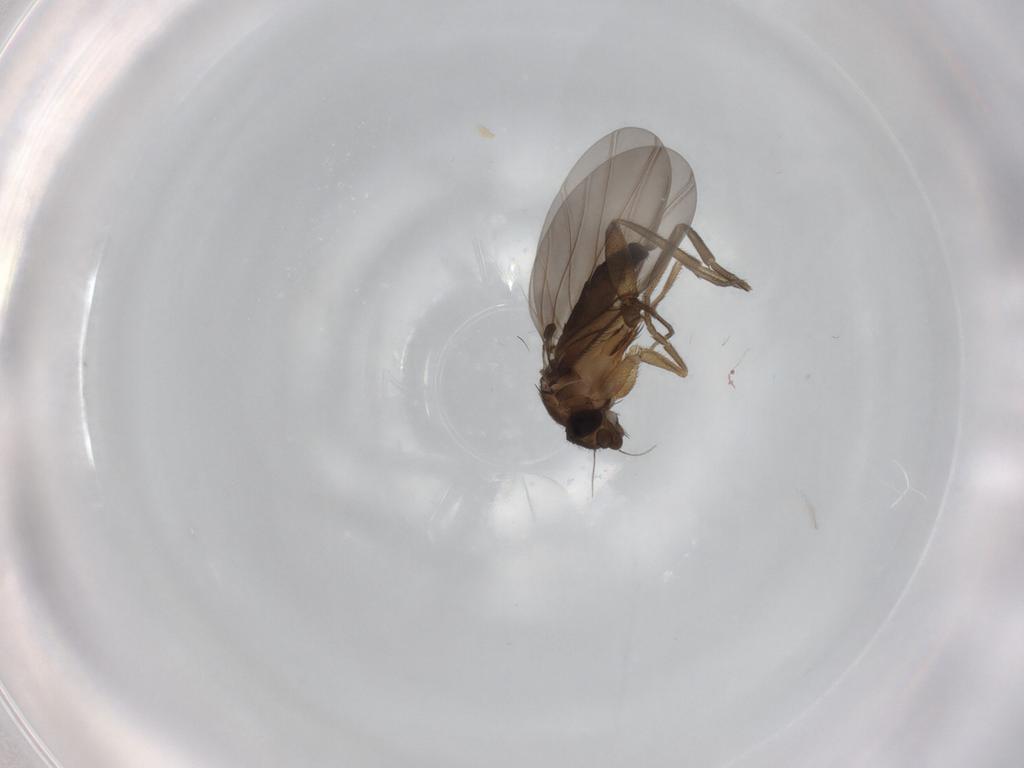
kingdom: Animalia
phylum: Arthropoda
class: Insecta
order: Diptera
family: Phoridae
